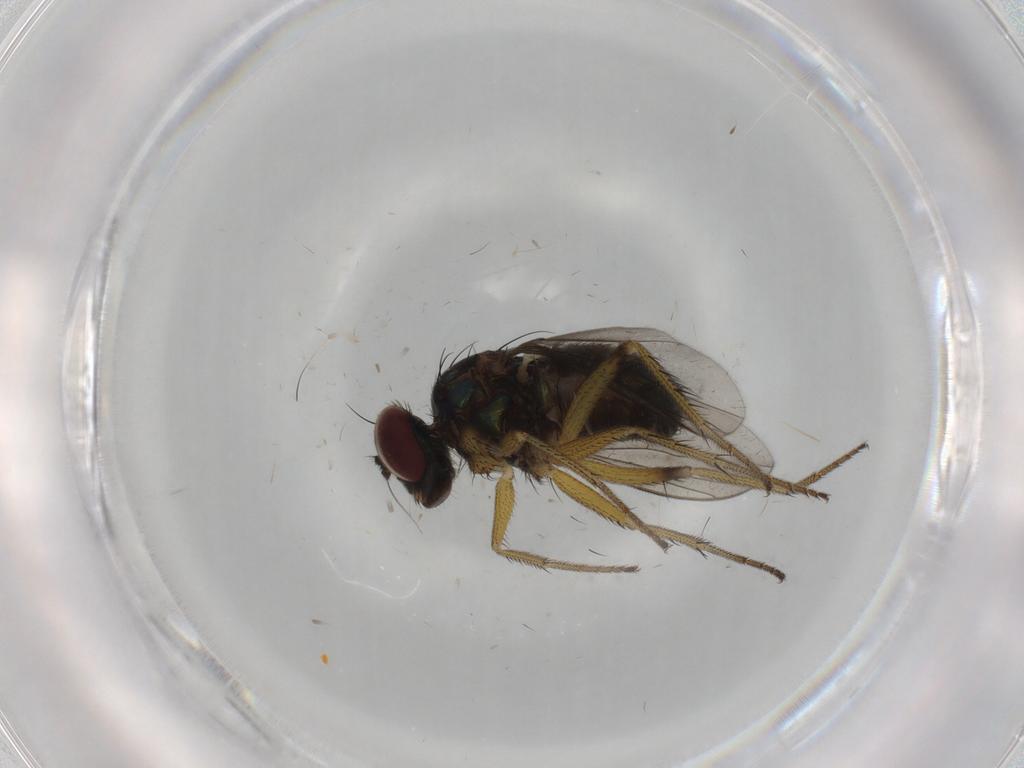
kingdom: Animalia
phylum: Arthropoda
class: Insecta
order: Diptera
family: Dolichopodidae
